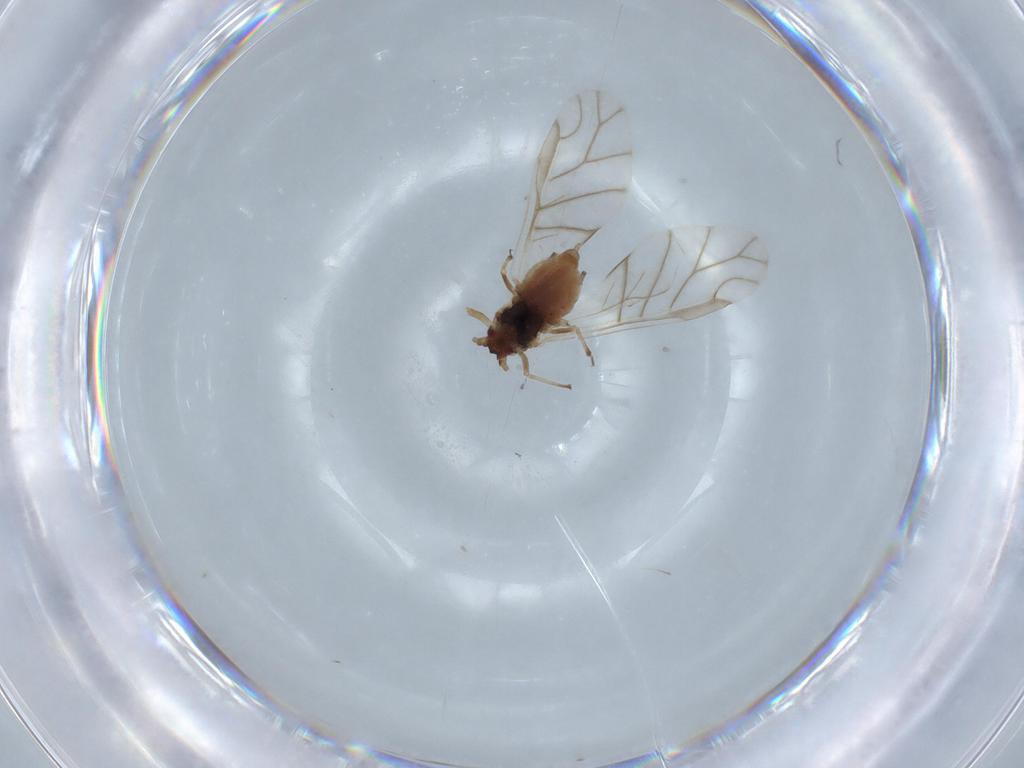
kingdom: Animalia
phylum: Arthropoda
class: Insecta
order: Hemiptera
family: Aphididae
